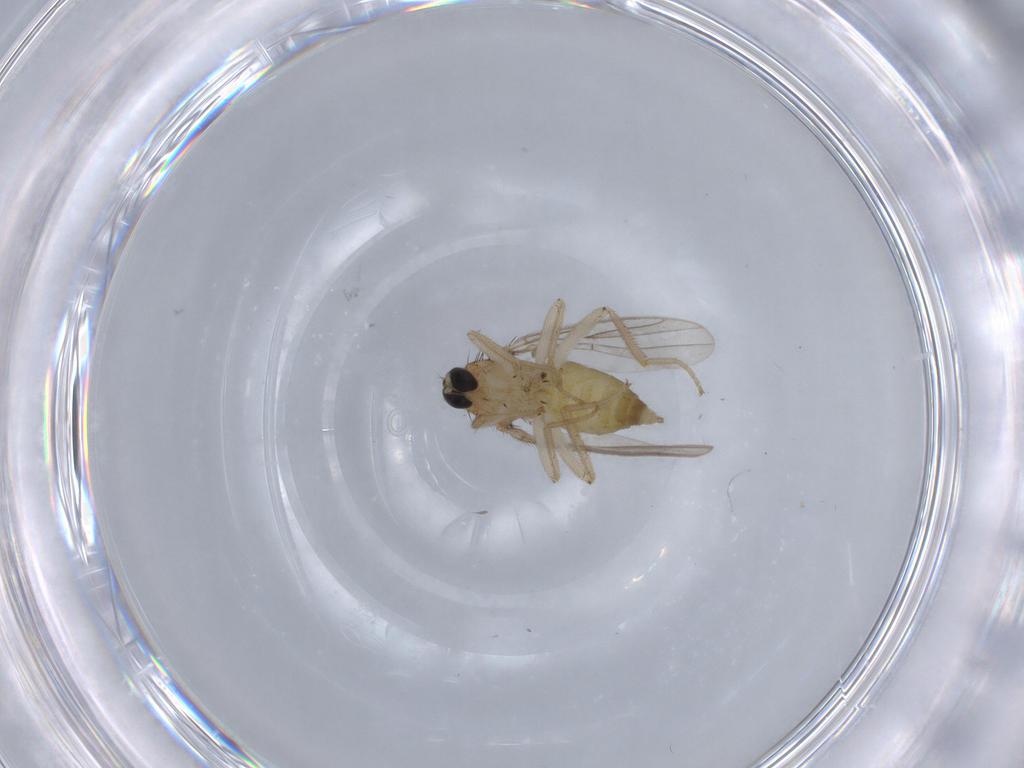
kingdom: Animalia
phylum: Arthropoda
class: Insecta
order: Diptera
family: Hybotidae
